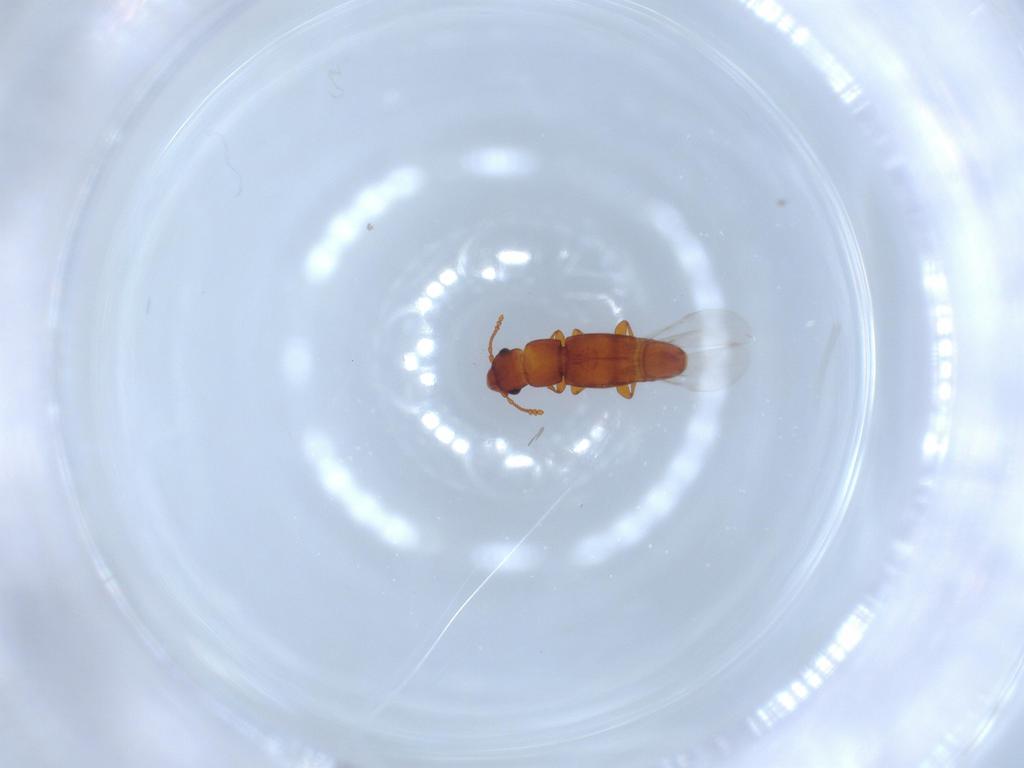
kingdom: Animalia
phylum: Arthropoda
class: Insecta
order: Coleoptera
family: Smicripidae
